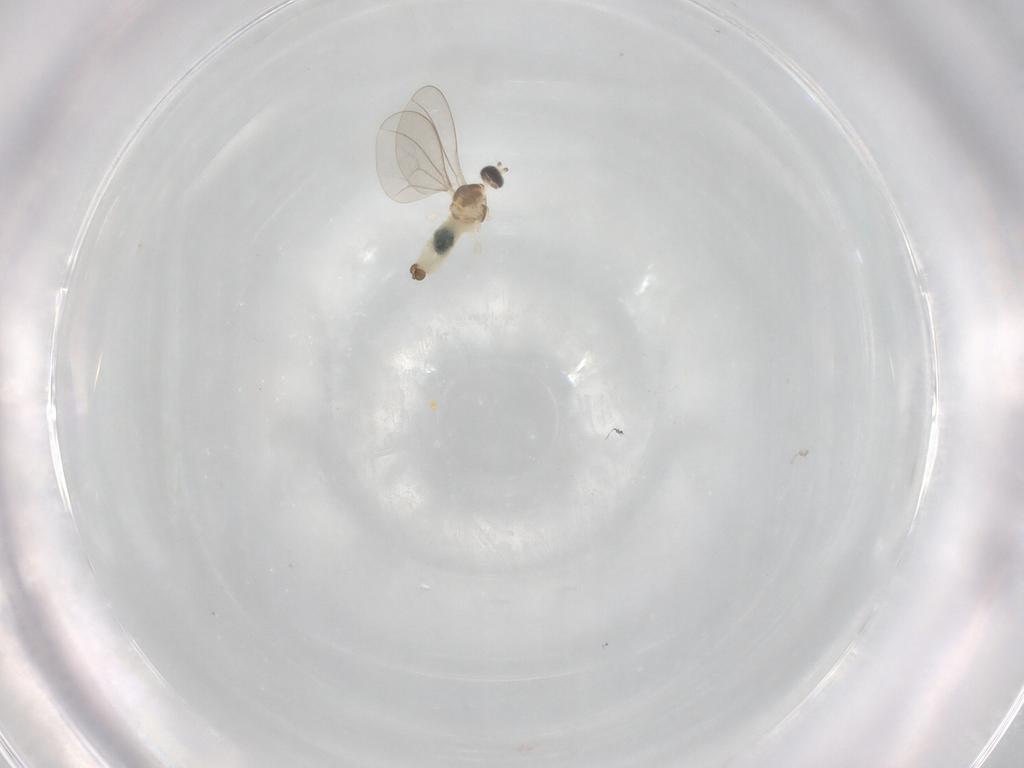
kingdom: Animalia
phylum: Arthropoda
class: Insecta
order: Diptera
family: Cecidomyiidae
